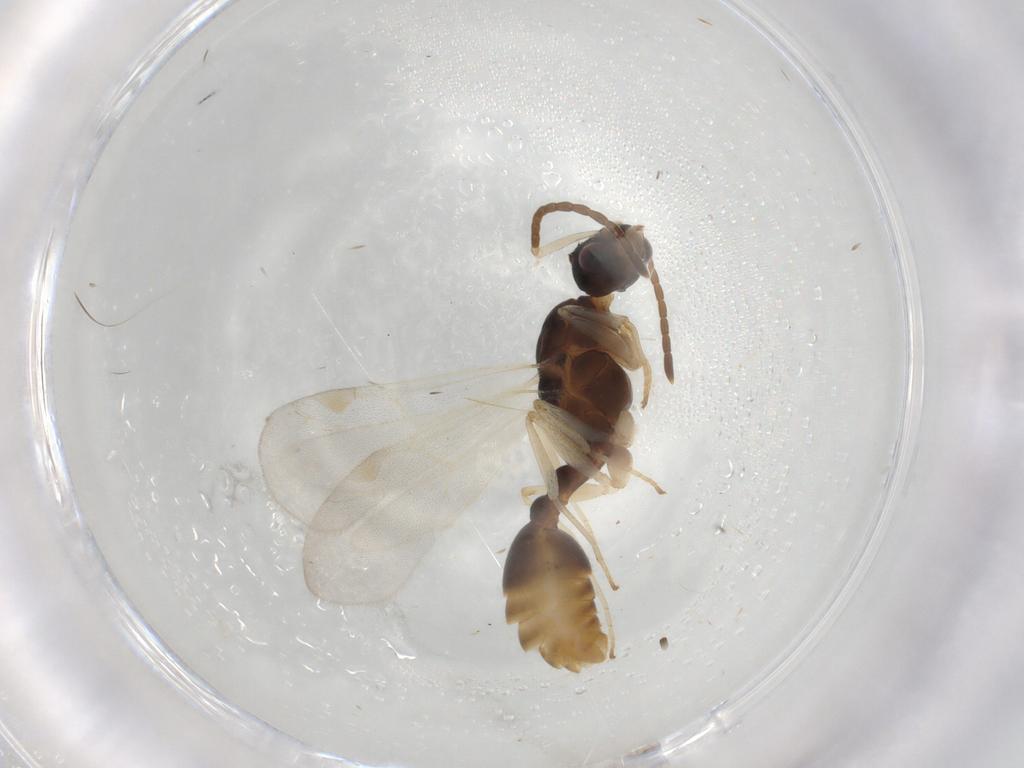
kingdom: Animalia
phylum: Arthropoda
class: Insecta
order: Hymenoptera
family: Formicidae
